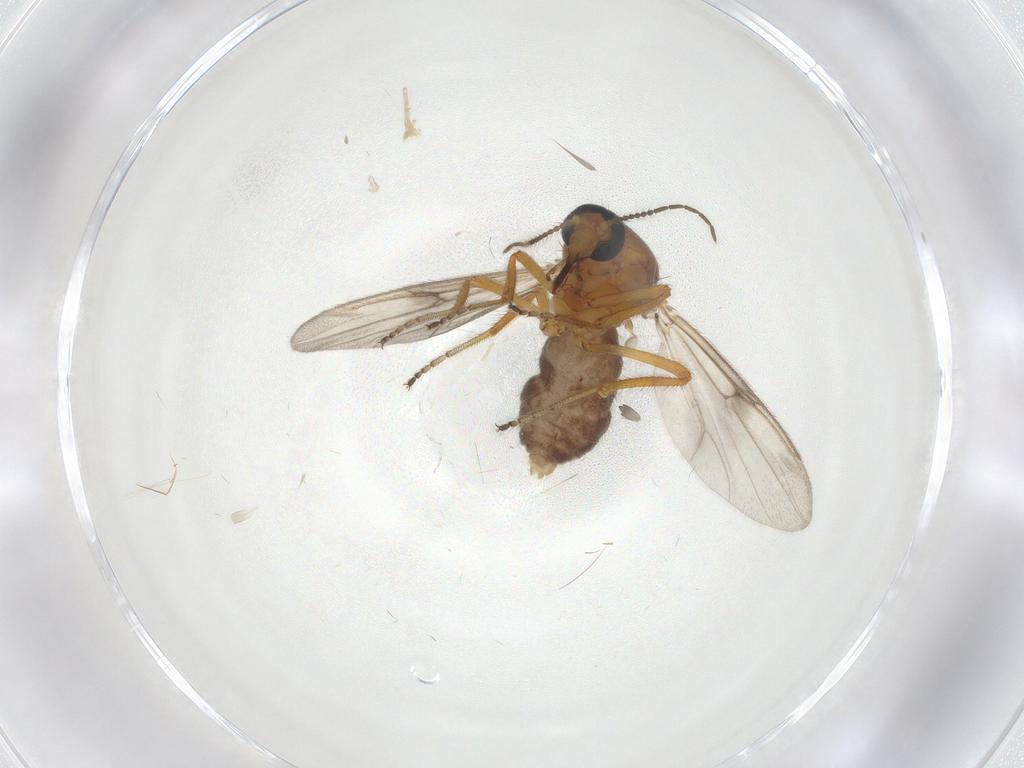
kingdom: Animalia
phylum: Arthropoda
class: Insecta
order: Diptera
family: Ceratopogonidae
